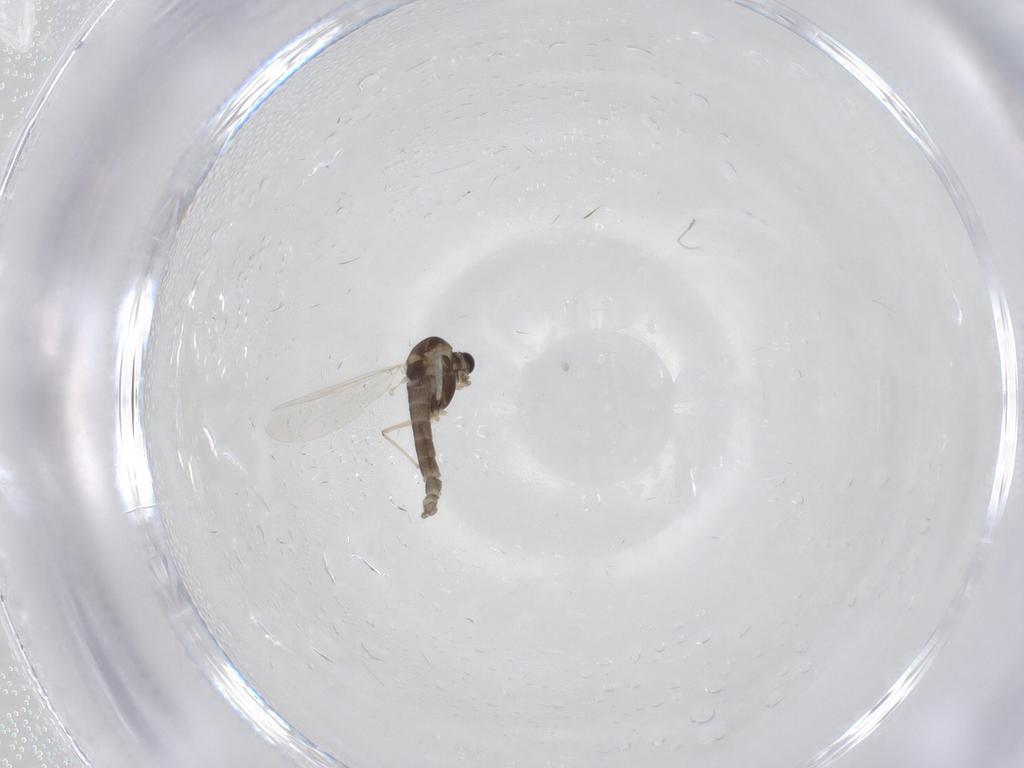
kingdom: Animalia
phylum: Arthropoda
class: Insecta
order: Diptera
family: Chironomidae
